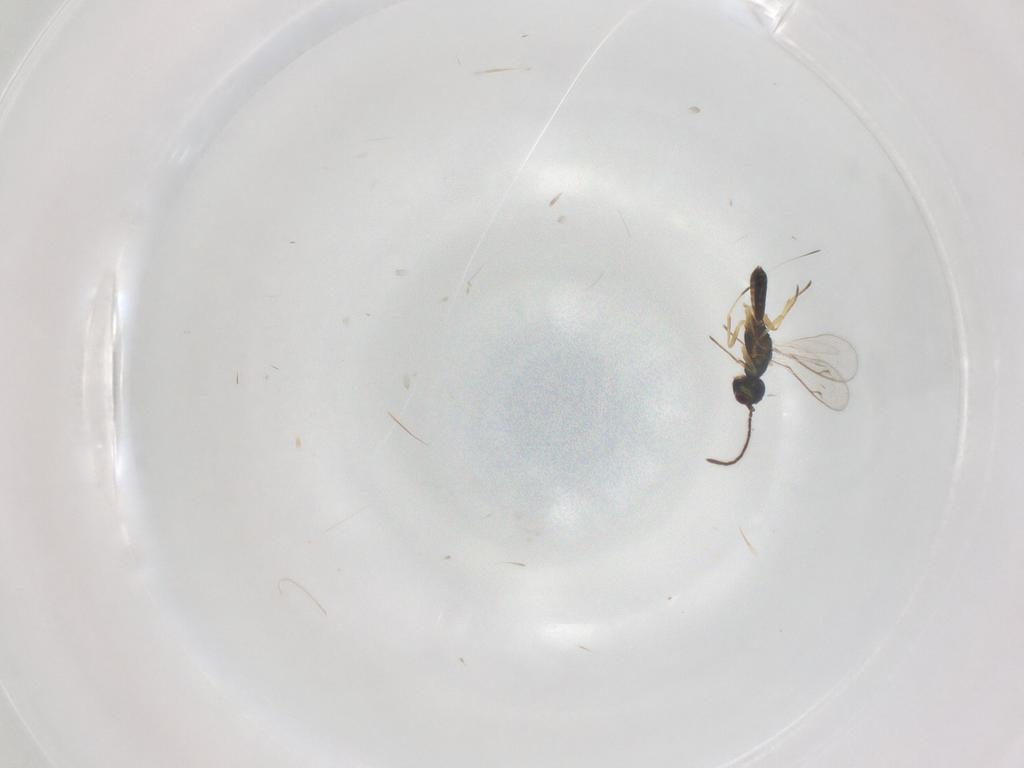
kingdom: Animalia
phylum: Arthropoda
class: Insecta
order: Hymenoptera
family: Eupelmidae
